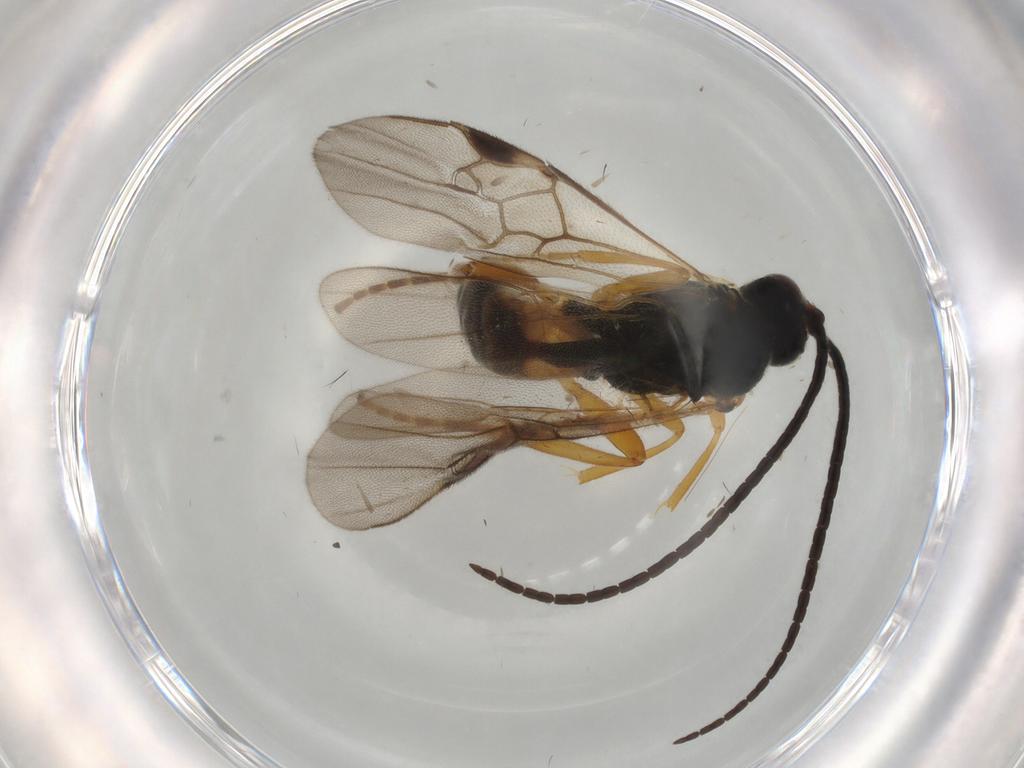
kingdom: Animalia
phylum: Arthropoda
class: Insecta
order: Hymenoptera
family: Braconidae
